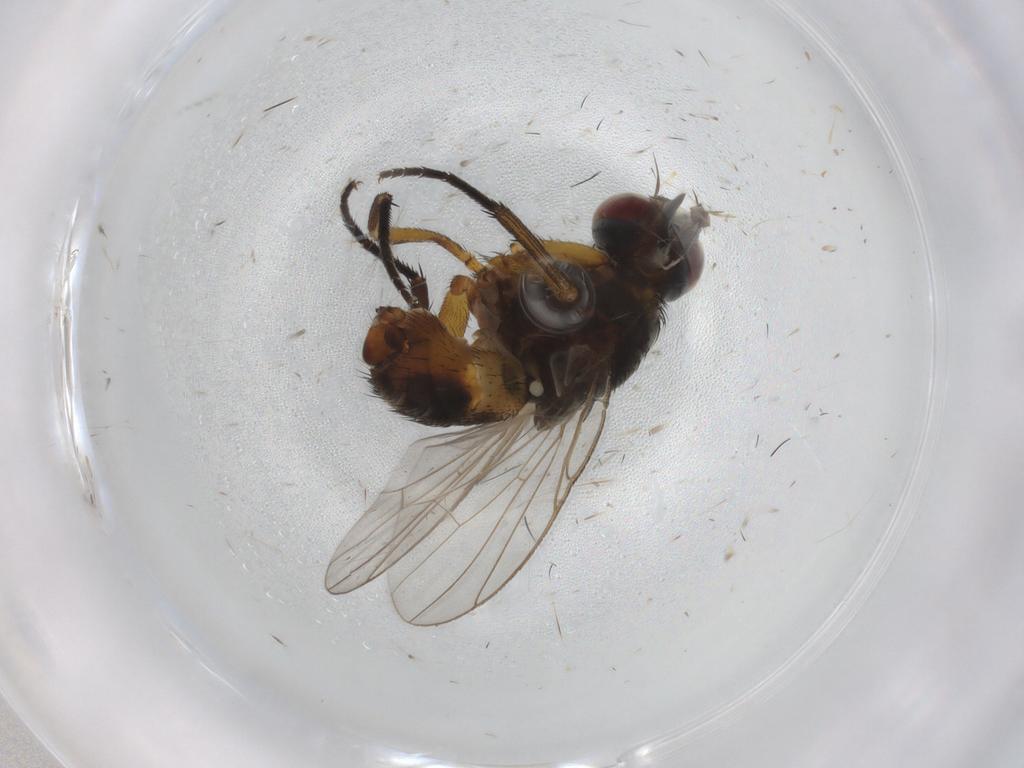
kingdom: Animalia
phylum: Arthropoda
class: Insecta
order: Diptera
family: Muscidae
